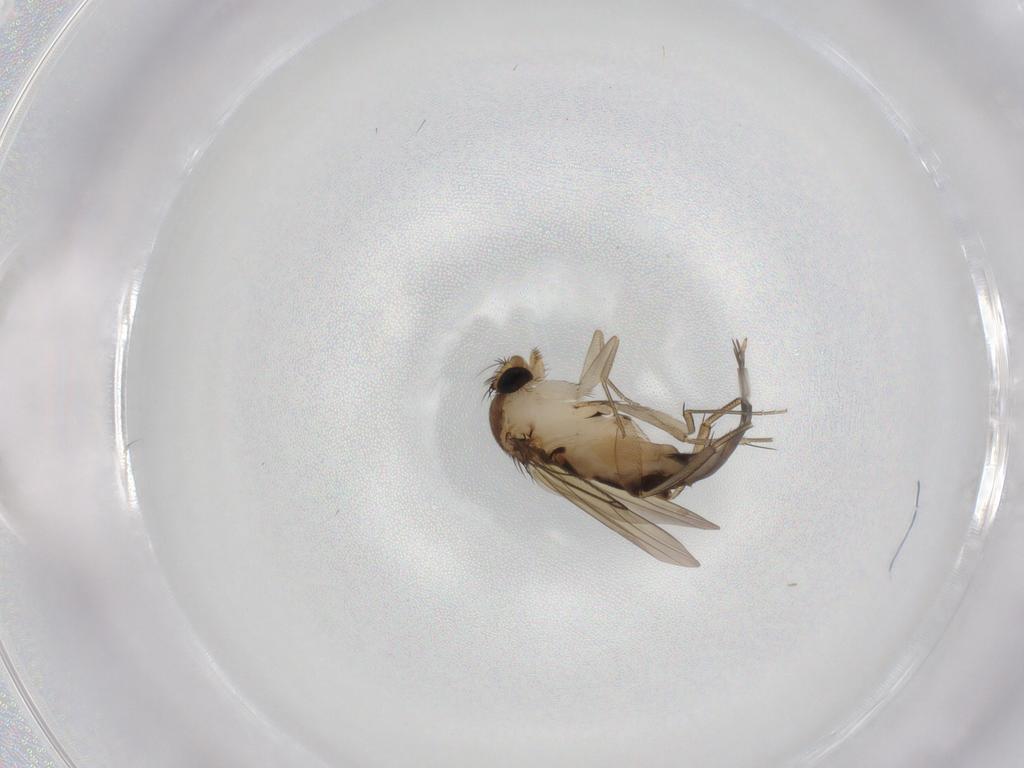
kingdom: Animalia
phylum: Arthropoda
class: Insecta
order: Diptera
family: Phoridae
